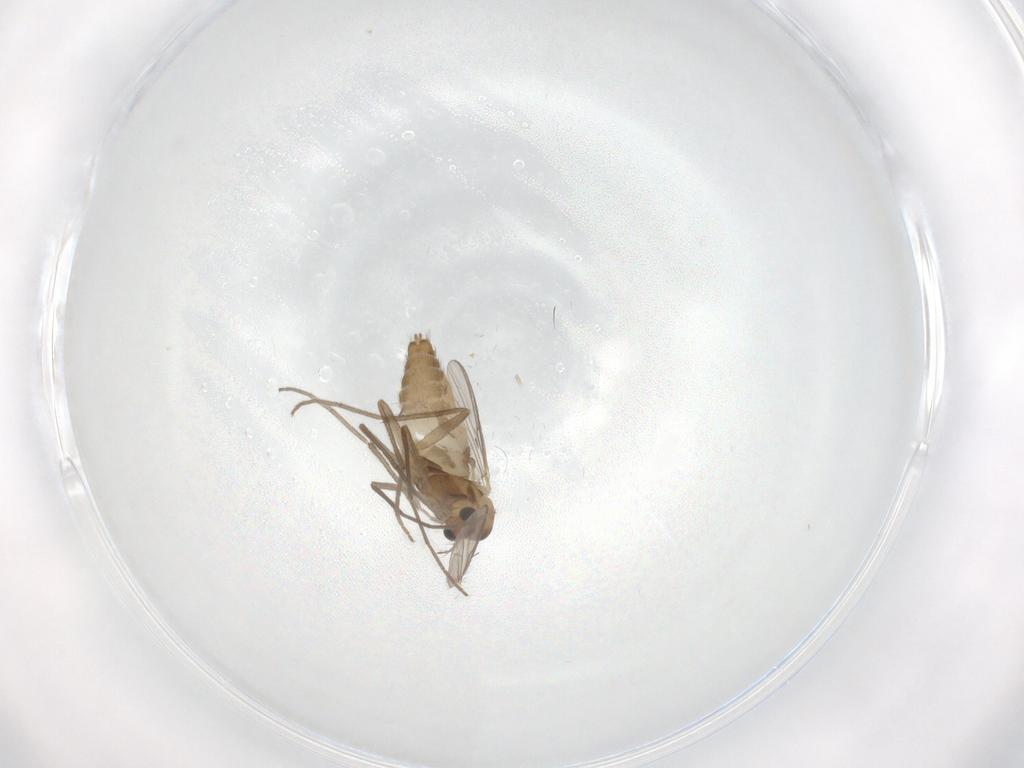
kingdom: Animalia
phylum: Arthropoda
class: Insecta
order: Diptera
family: Chironomidae
